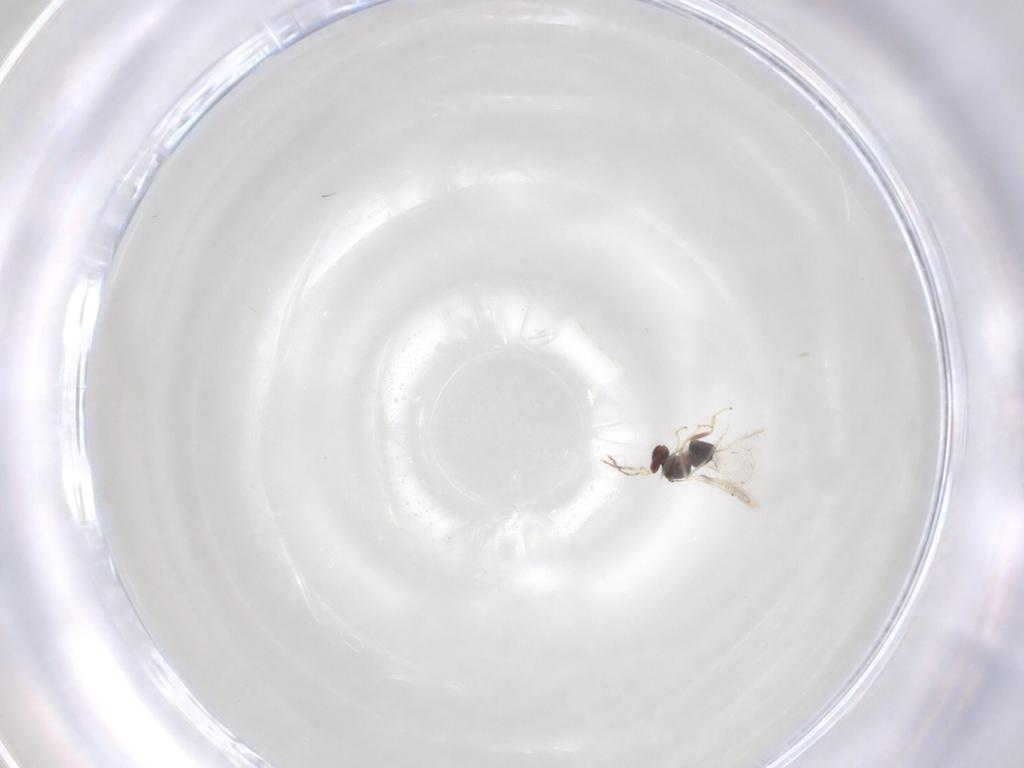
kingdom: Animalia
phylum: Arthropoda
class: Insecta
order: Hymenoptera
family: Eulophidae
